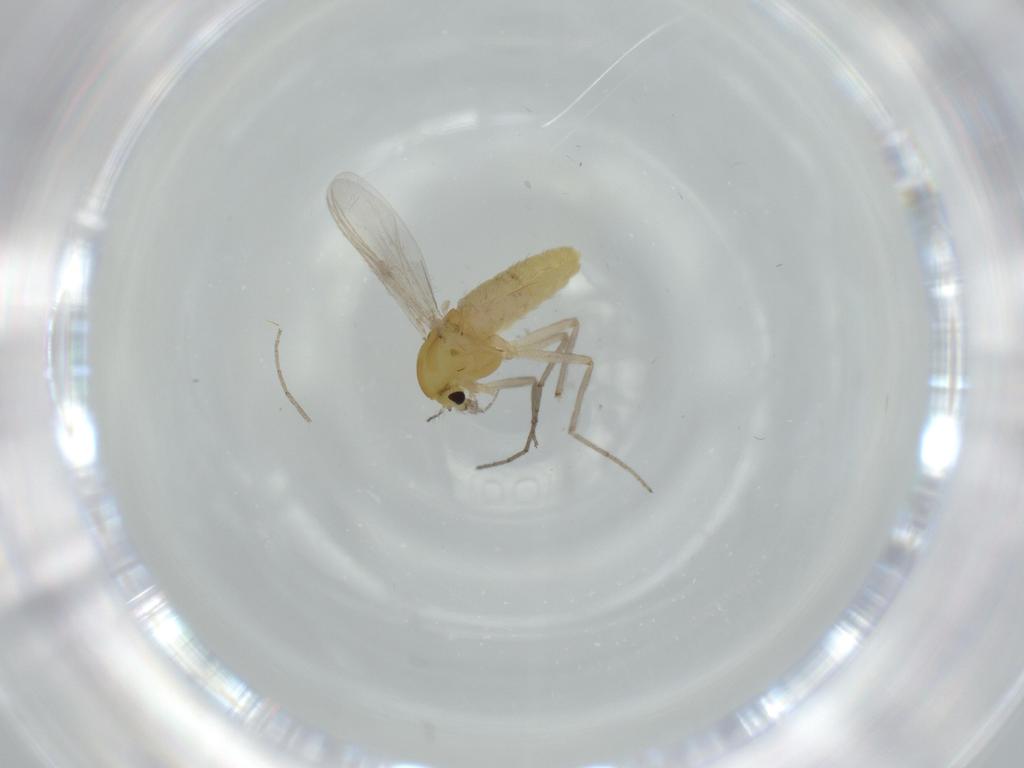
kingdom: Animalia
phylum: Arthropoda
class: Insecta
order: Diptera
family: Chironomidae
